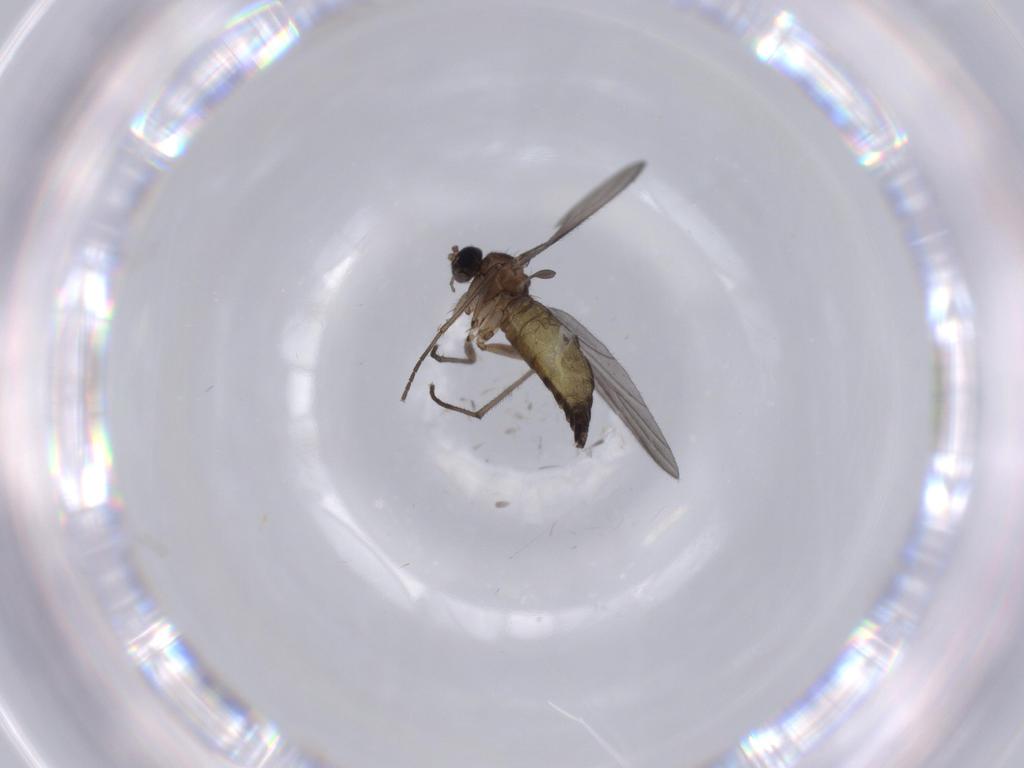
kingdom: Animalia
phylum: Arthropoda
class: Insecta
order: Diptera
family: Sciaridae
